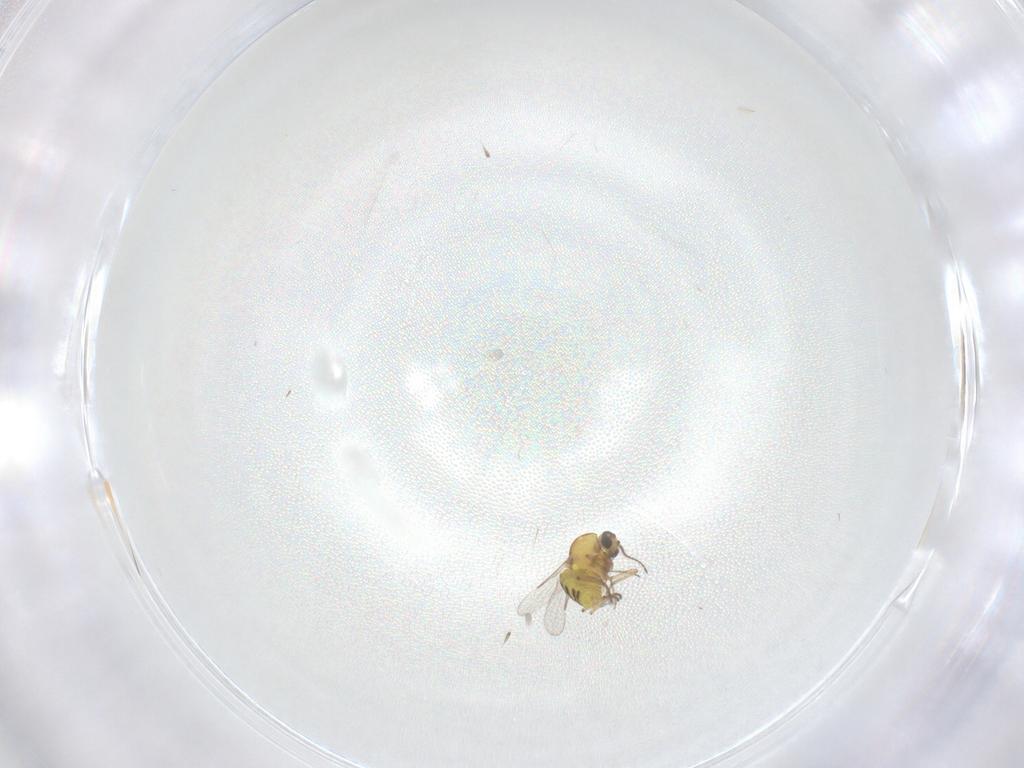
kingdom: Animalia
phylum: Arthropoda
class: Insecta
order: Diptera
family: Ceratopogonidae
